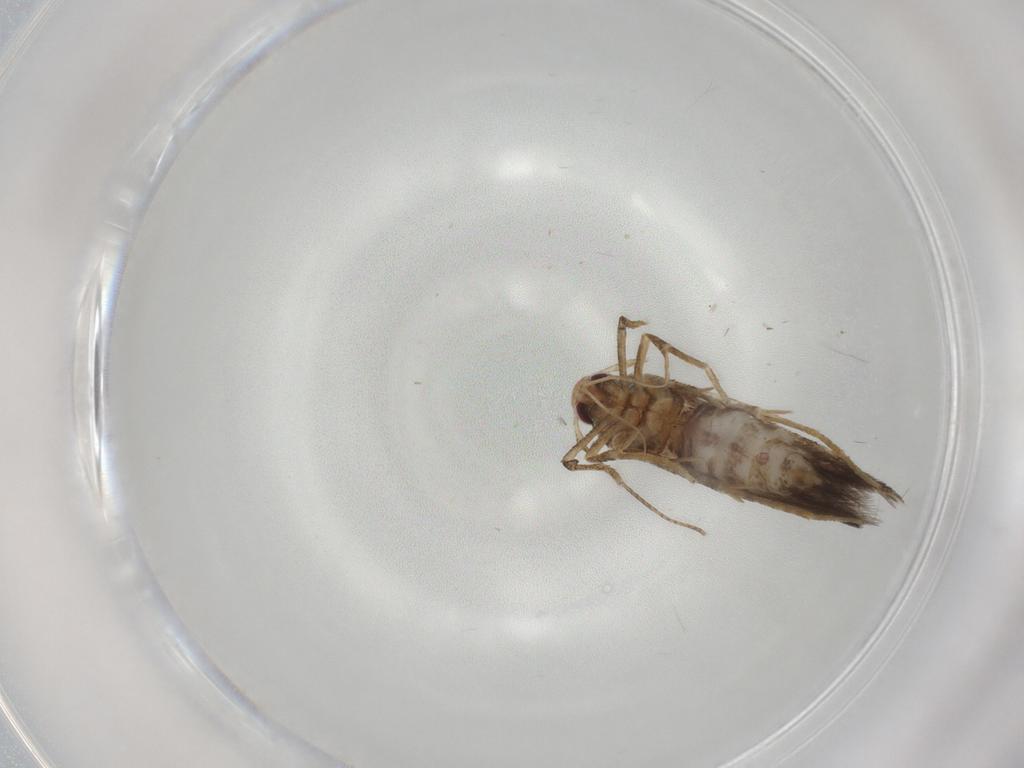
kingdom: Animalia
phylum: Arthropoda
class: Insecta
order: Lepidoptera
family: Cosmopterigidae
